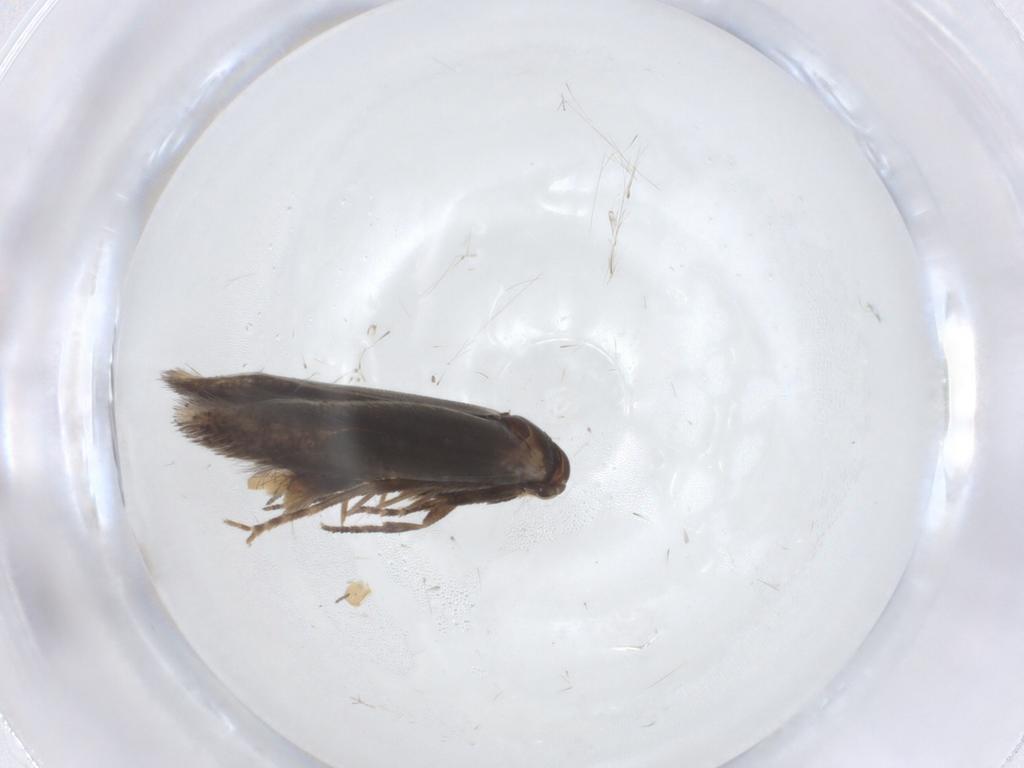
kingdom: Animalia
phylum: Arthropoda
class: Insecta
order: Lepidoptera
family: Elachistidae
